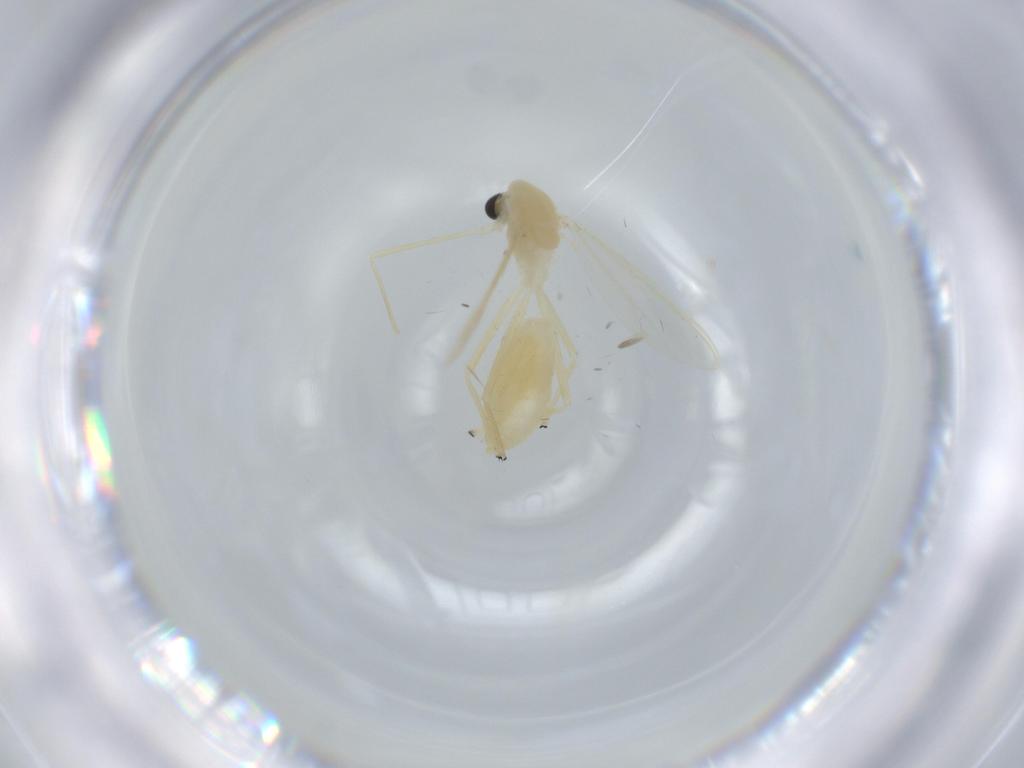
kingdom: Animalia
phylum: Arthropoda
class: Insecta
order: Diptera
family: Chironomidae
